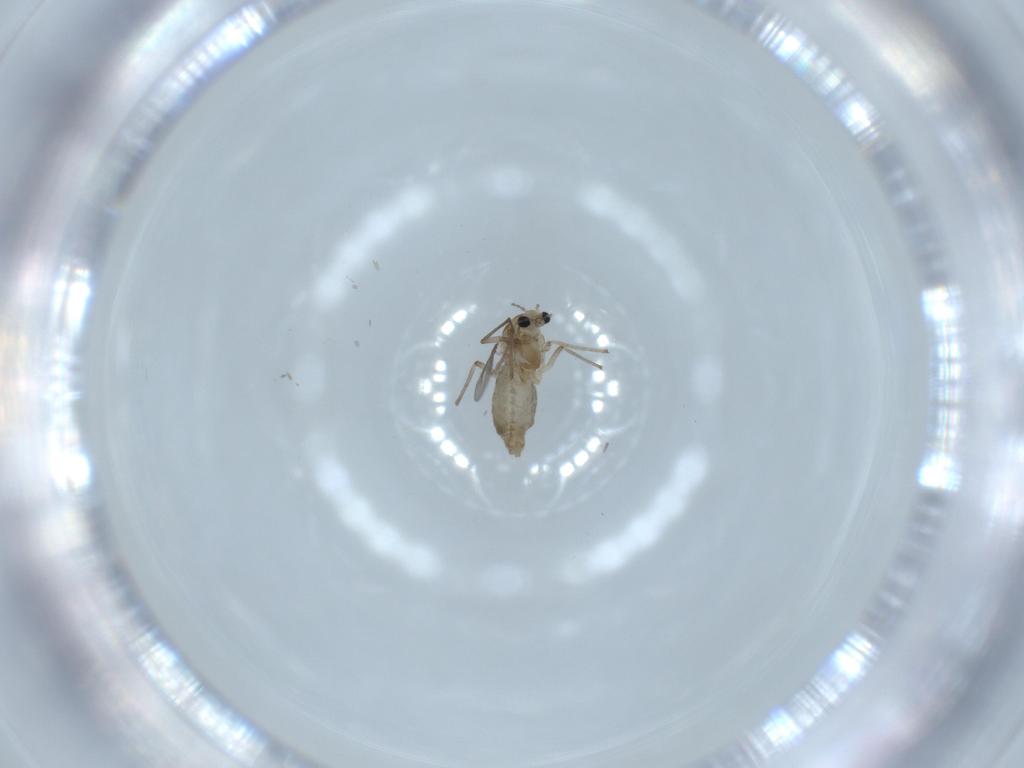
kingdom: Animalia
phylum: Arthropoda
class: Insecta
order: Diptera
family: Chironomidae
